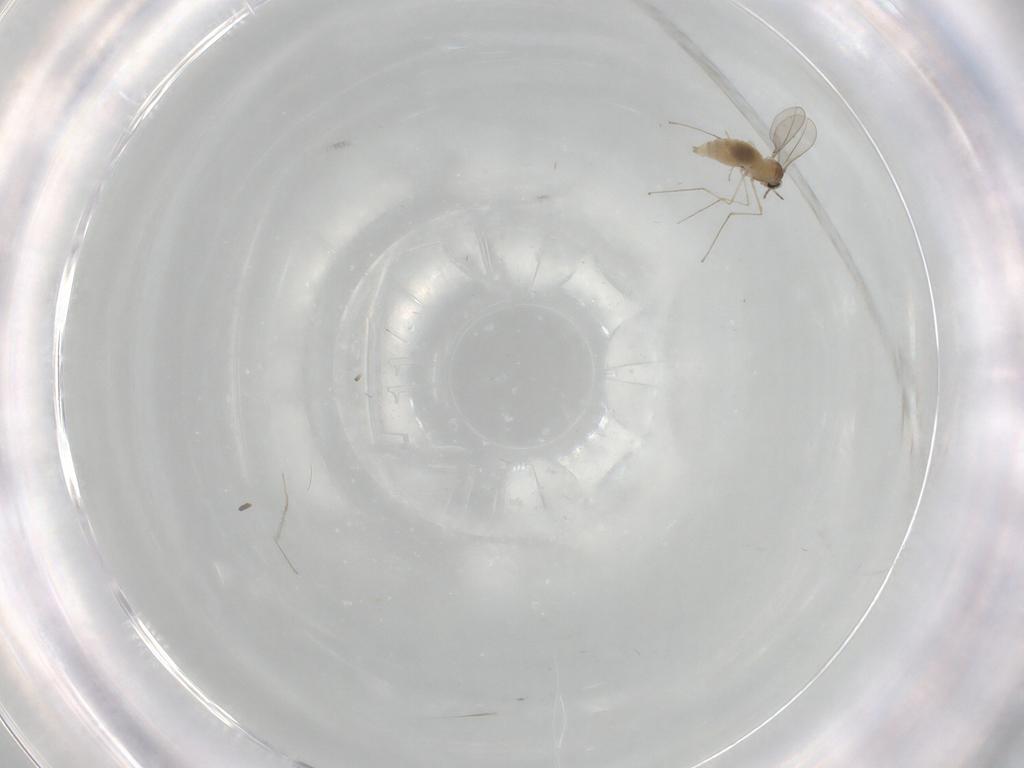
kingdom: Animalia
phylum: Arthropoda
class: Insecta
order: Diptera
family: Cecidomyiidae
